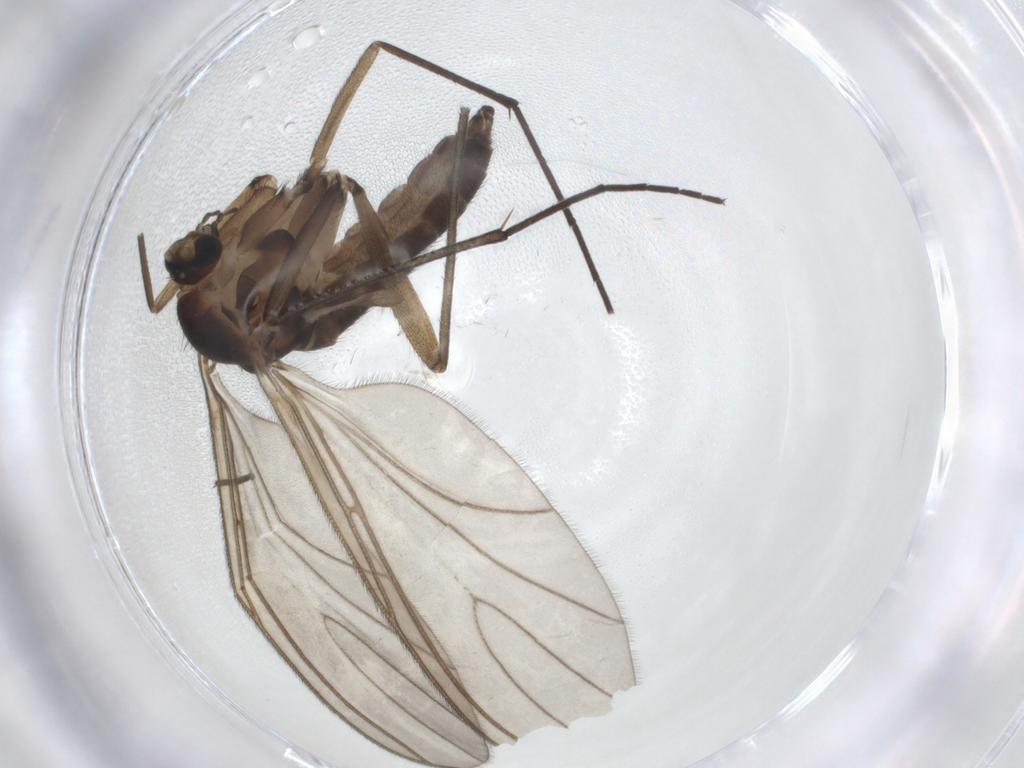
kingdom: Animalia
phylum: Arthropoda
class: Insecta
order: Diptera
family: Sciaridae
